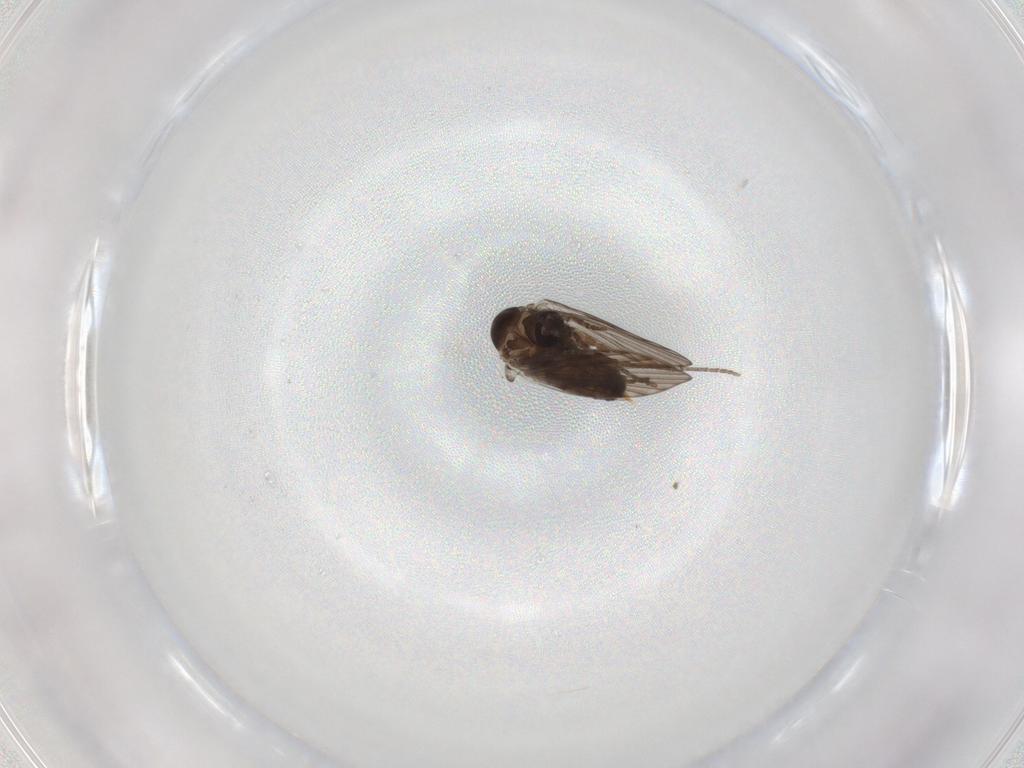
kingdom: Animalia
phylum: Arthropoda
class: Insecta
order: Diptera
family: Psychodidae
